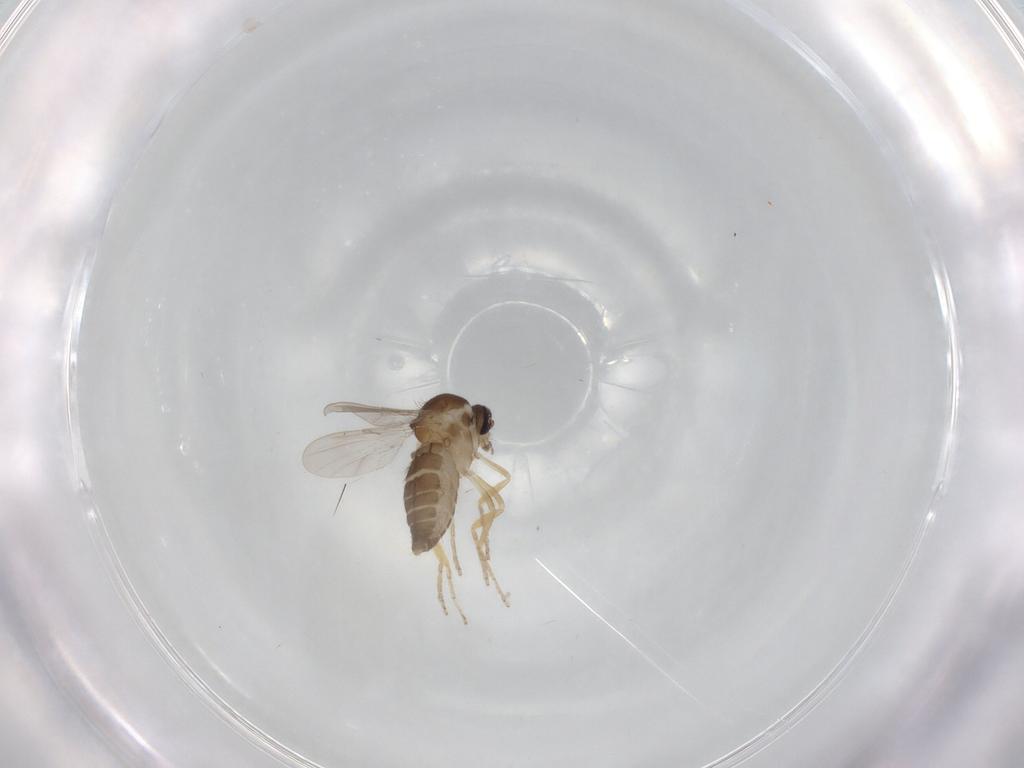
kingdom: Animalia
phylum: Arthropoda
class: Insecta
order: Diptera
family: Ceratopogonidae
